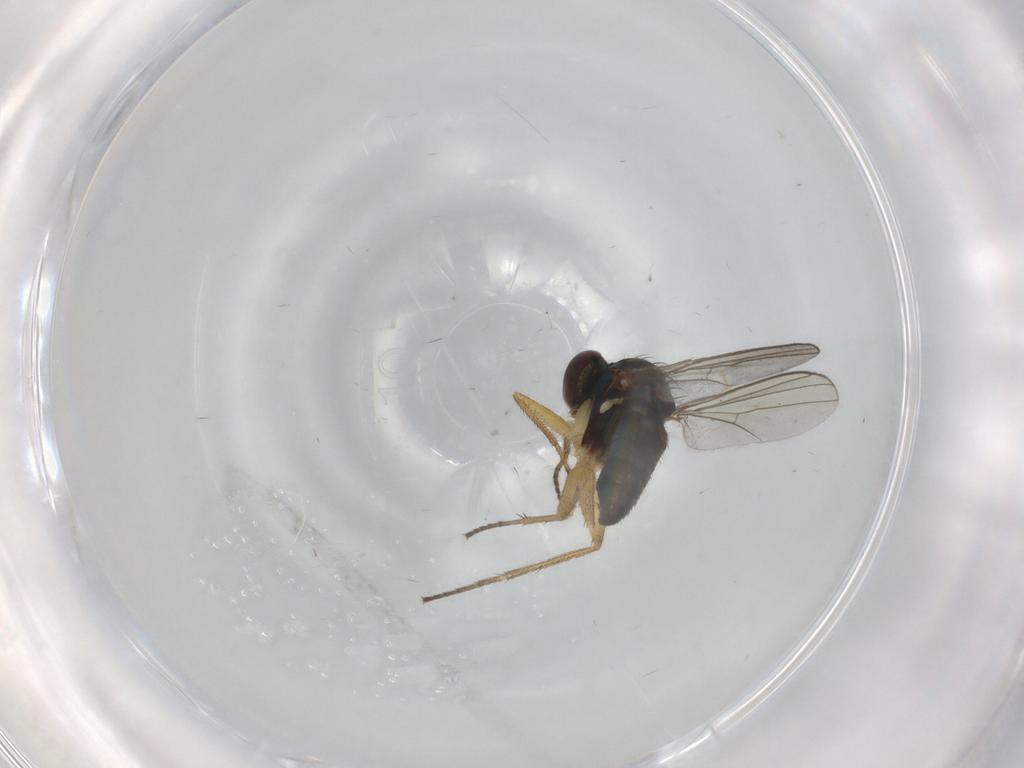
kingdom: Animalia
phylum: Arthropoda
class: Insecta
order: Diptera
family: Dolichopodidae
